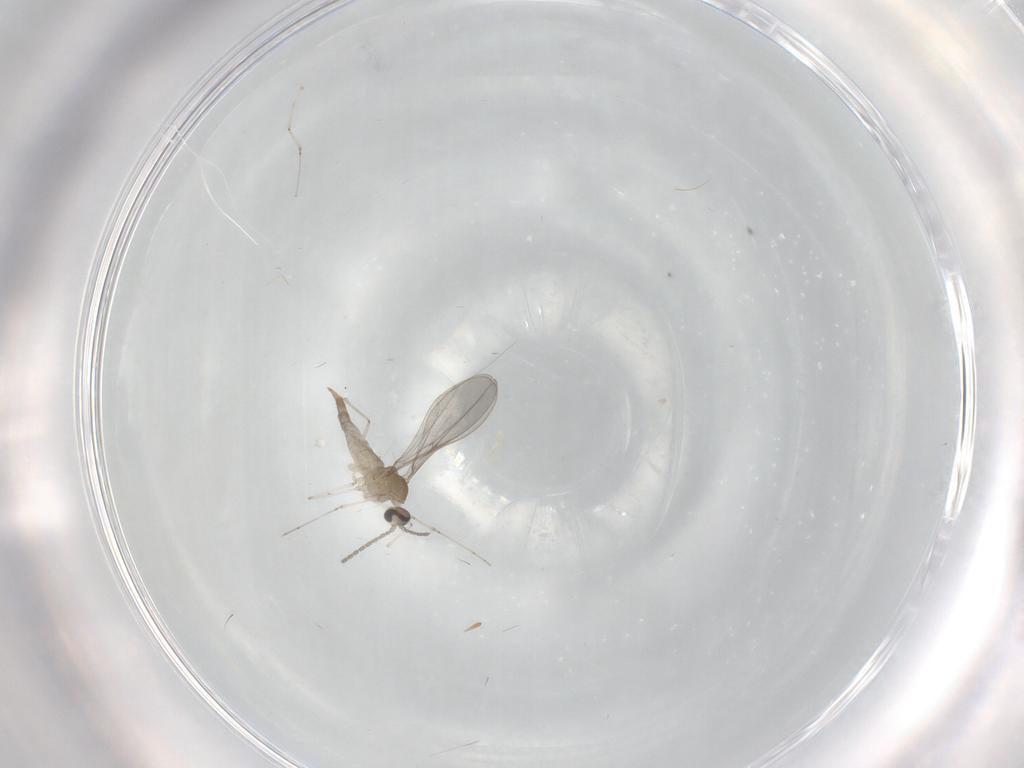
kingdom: Animalia
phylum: Arthropoda
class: Insecta
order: Diptera
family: Cecidomyiidae
